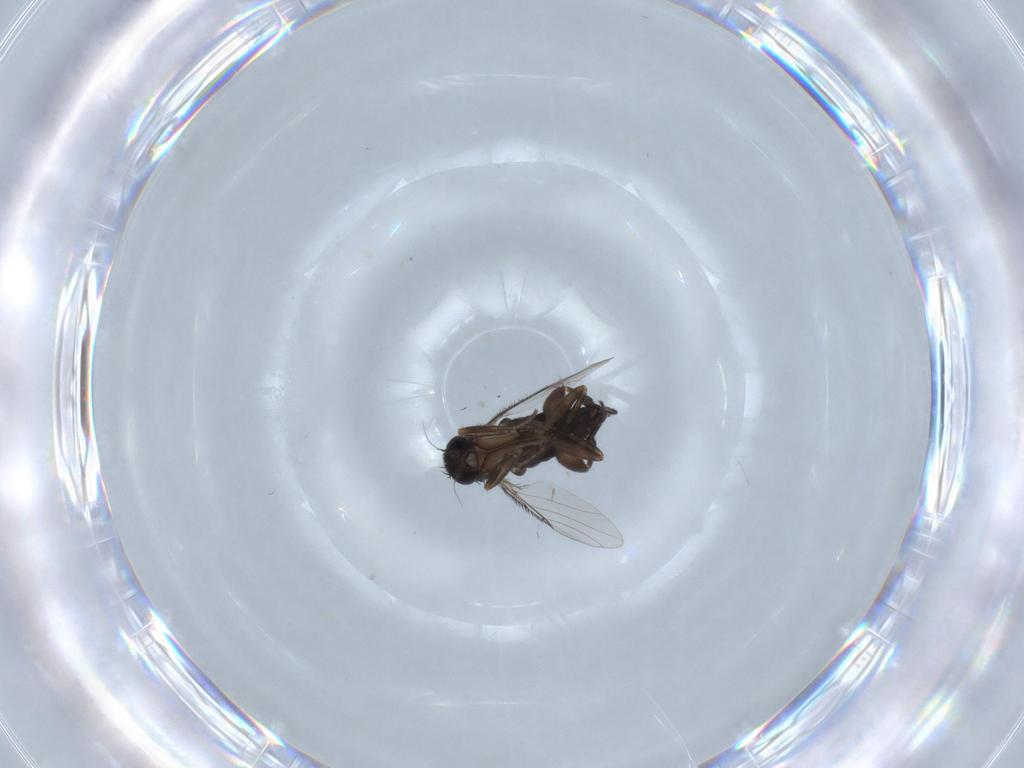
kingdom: Animalia
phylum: Arthropoda
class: Insecta
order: Diptera
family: Phoridae
